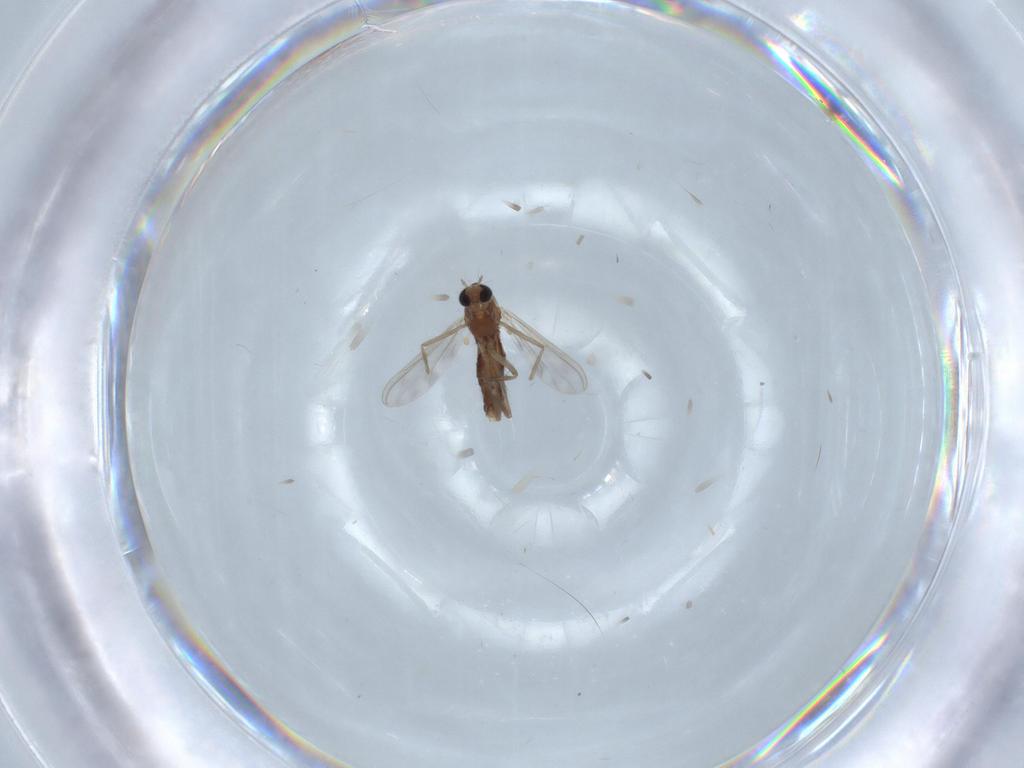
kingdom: Animalia
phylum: Arthropoda
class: Insecta
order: Diptera
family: Chironomidae
